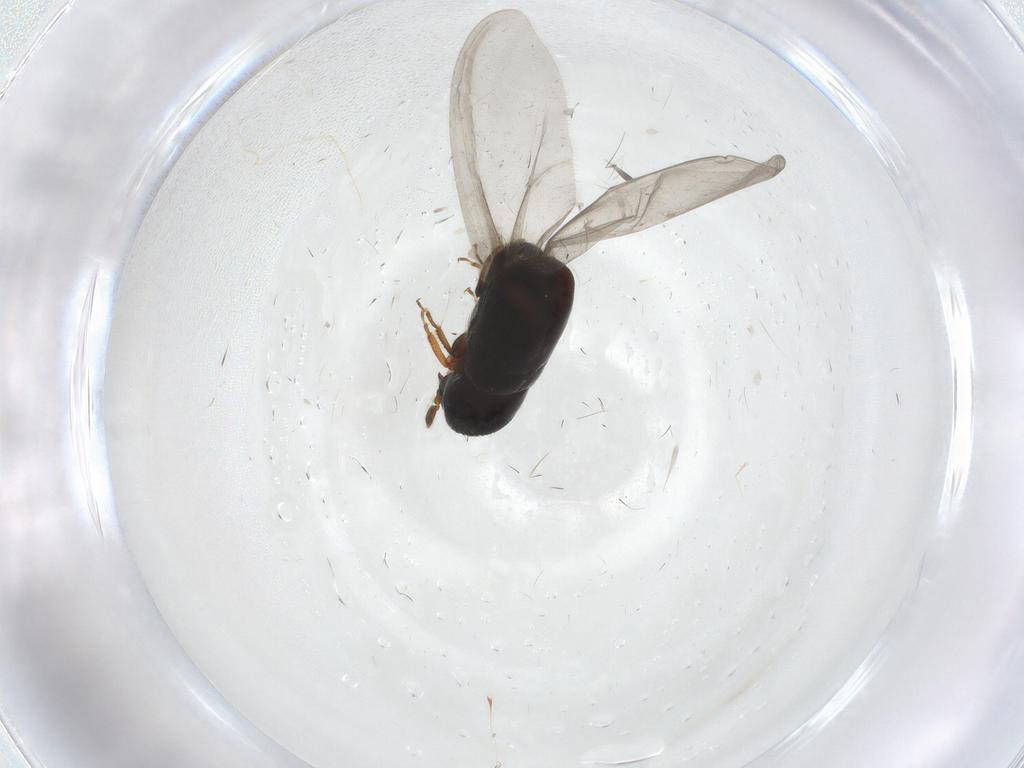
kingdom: Animalia
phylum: Arthropoda
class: Insecta
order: Coleoptera
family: Curculionidae
